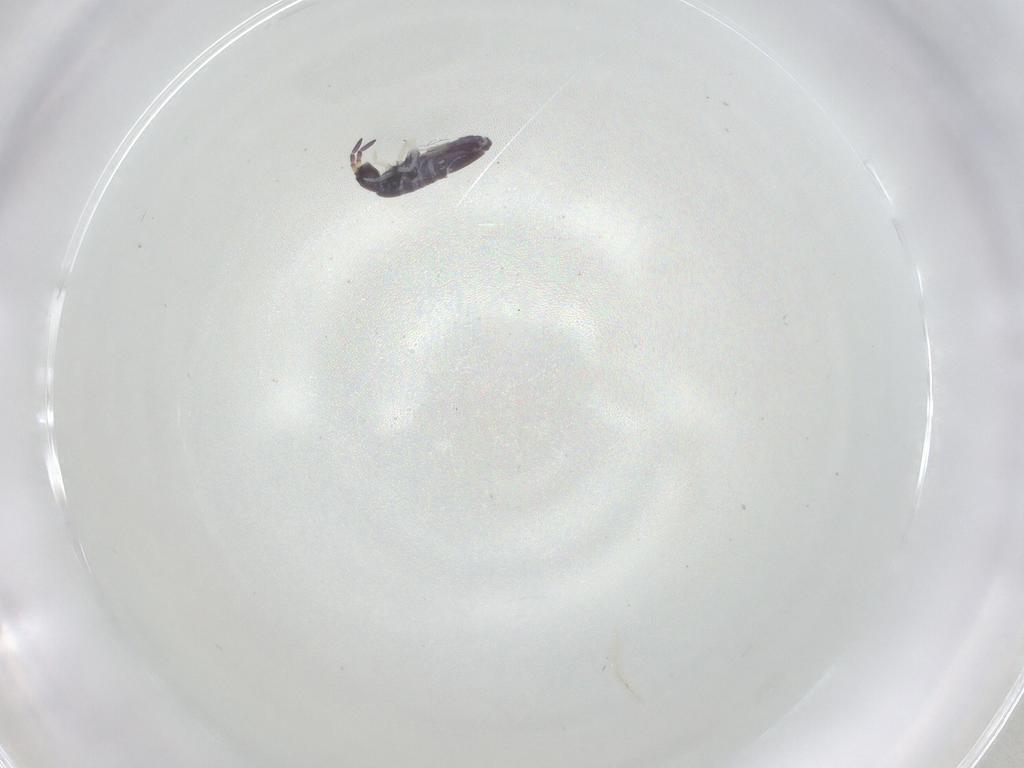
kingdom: Animalia
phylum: Arthropoda
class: Collembola
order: Entomobryomorpha
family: Entomobryidae
